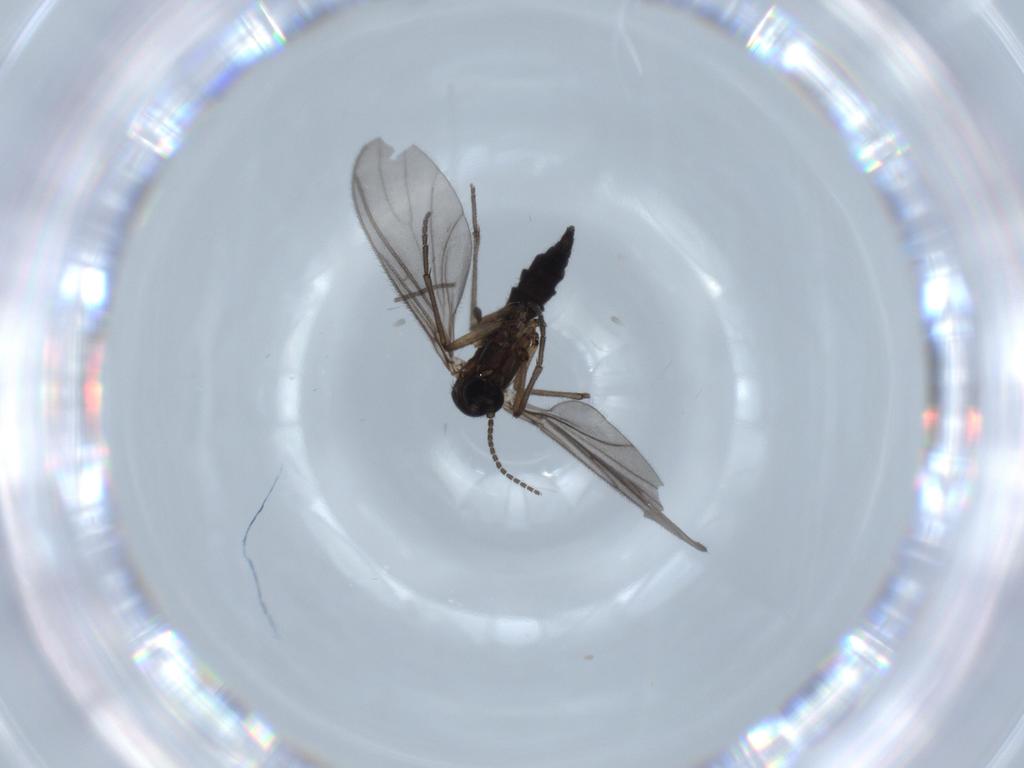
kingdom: Animalia
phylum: Arthropoda
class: Insecta
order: Diptera
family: Sciaridae
